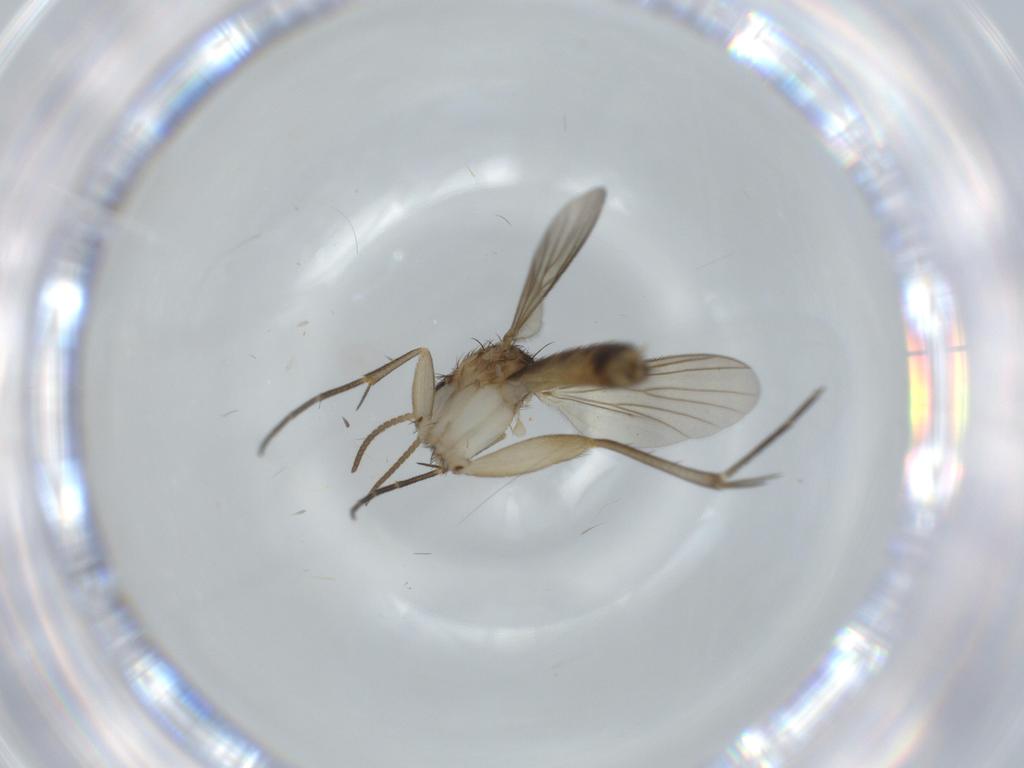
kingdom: Animalia
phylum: Arthropoda
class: Insecta
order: Diptera
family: Mycetophilidae
